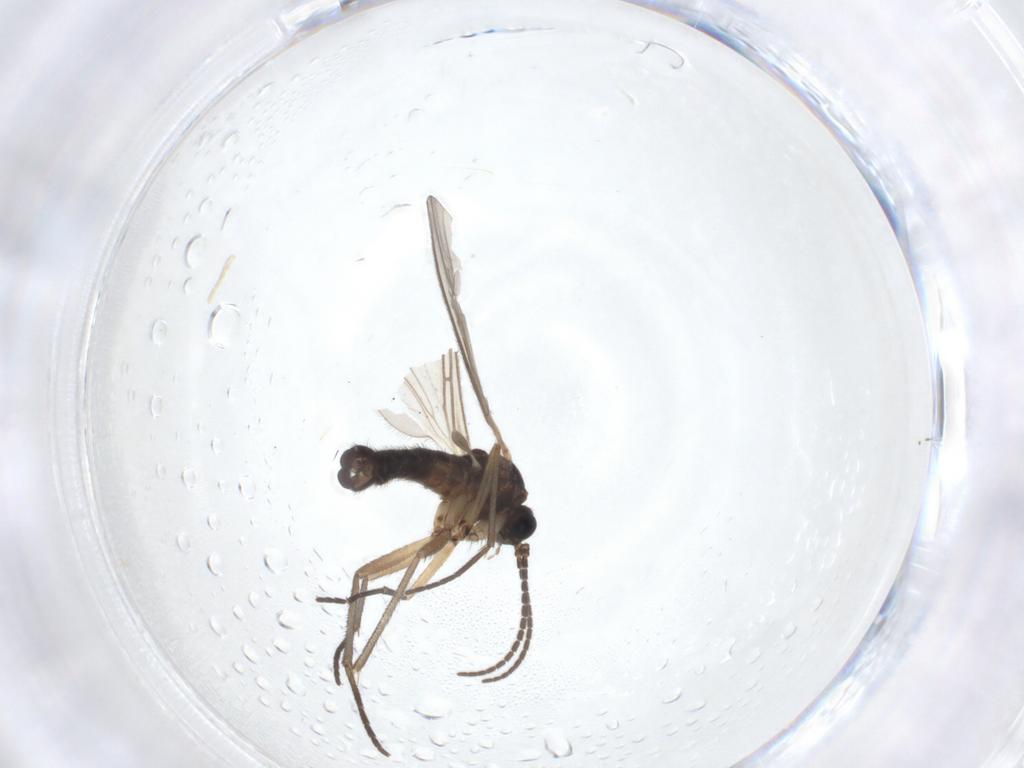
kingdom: Animalia
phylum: Arthropoda
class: Insecta
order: Diptera
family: Sciaridae
